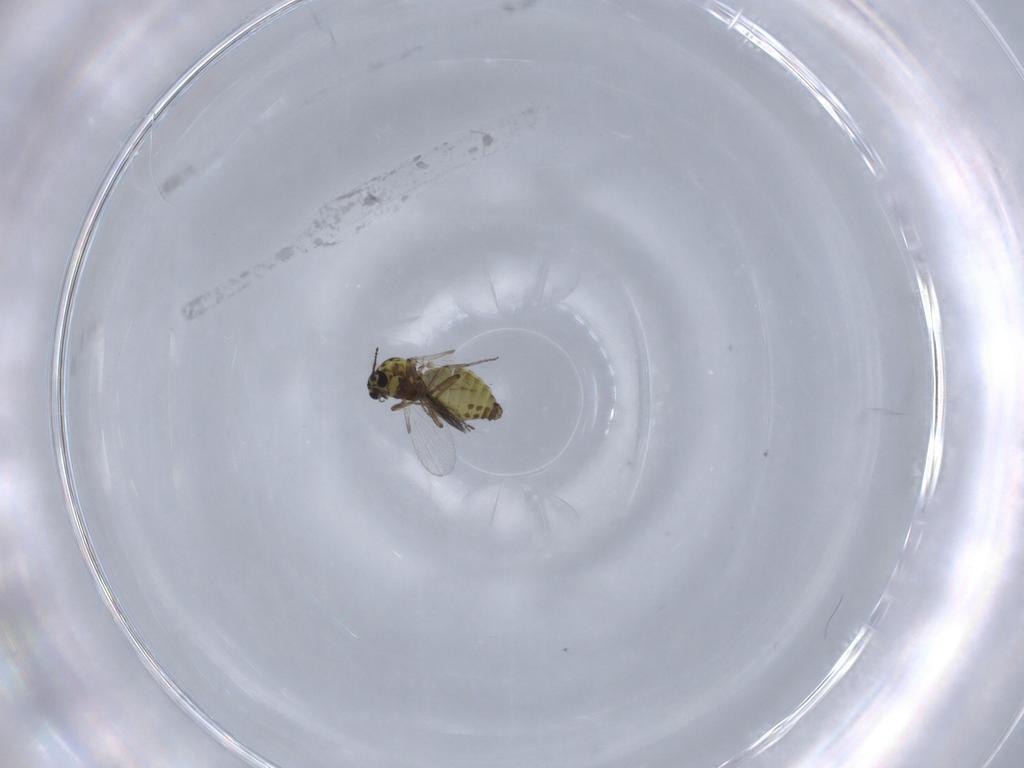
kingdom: Animalia
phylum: Arthropoda
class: Insecta
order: Diptera
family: Ceratopogonidae
